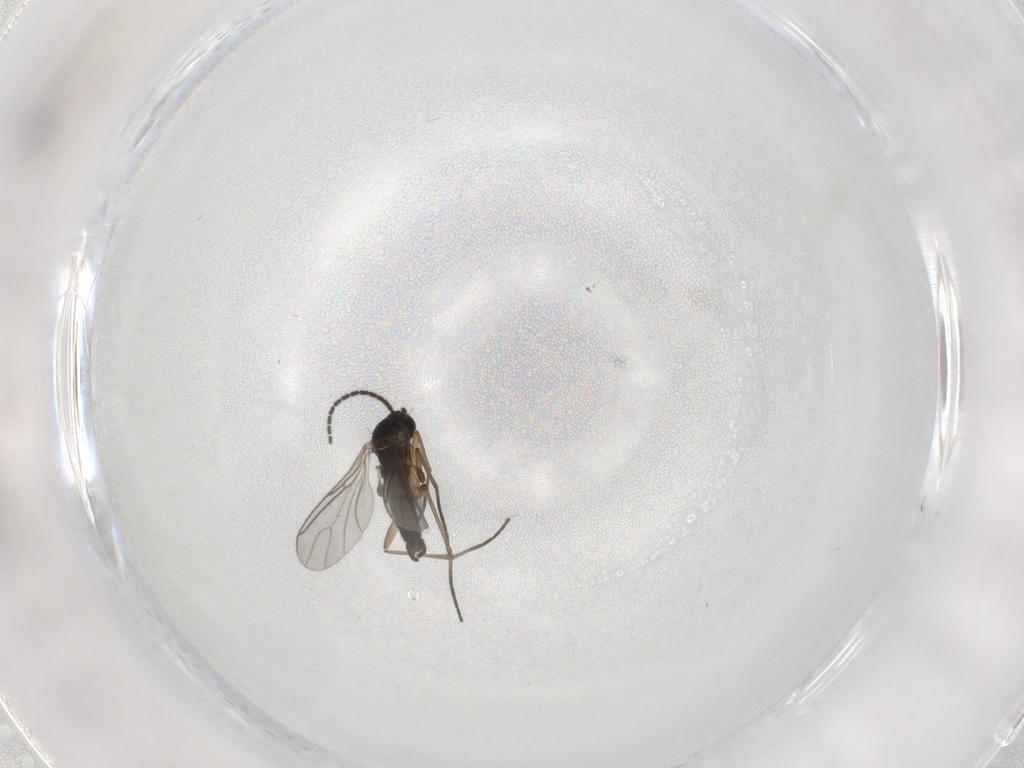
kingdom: Animalia
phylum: Arthropoda
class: Insecta
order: Diptera
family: Sciaridae
